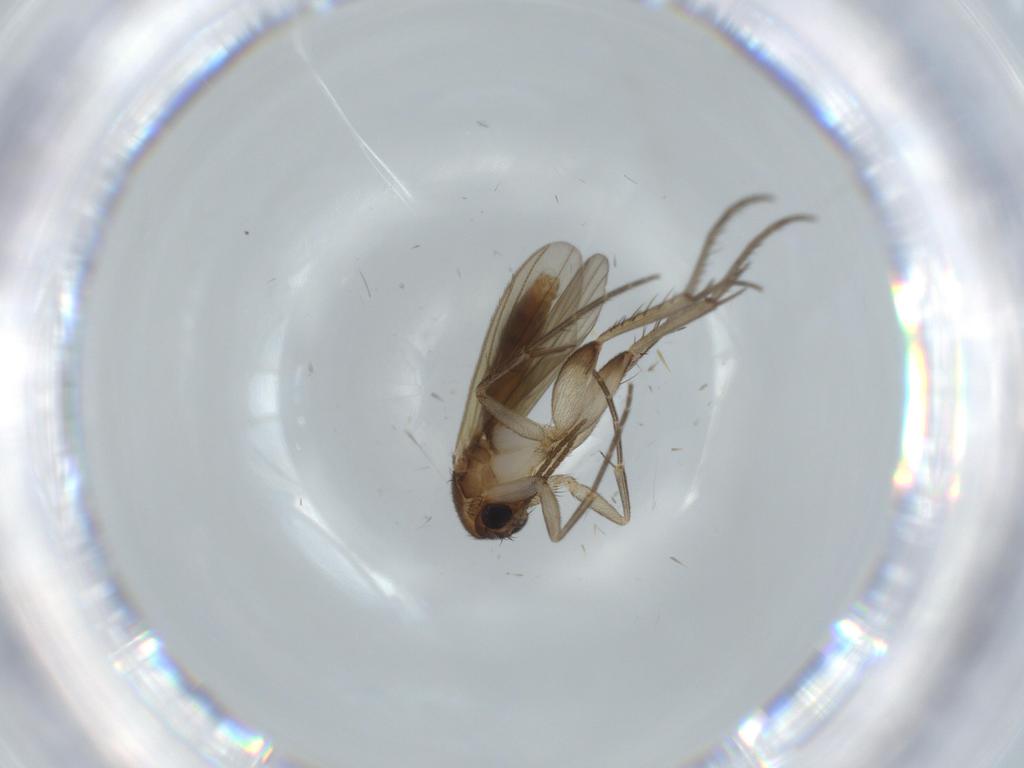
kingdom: Animalia
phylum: Arthropoda
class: Insecta
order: Diptera
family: Mycetophilidae
